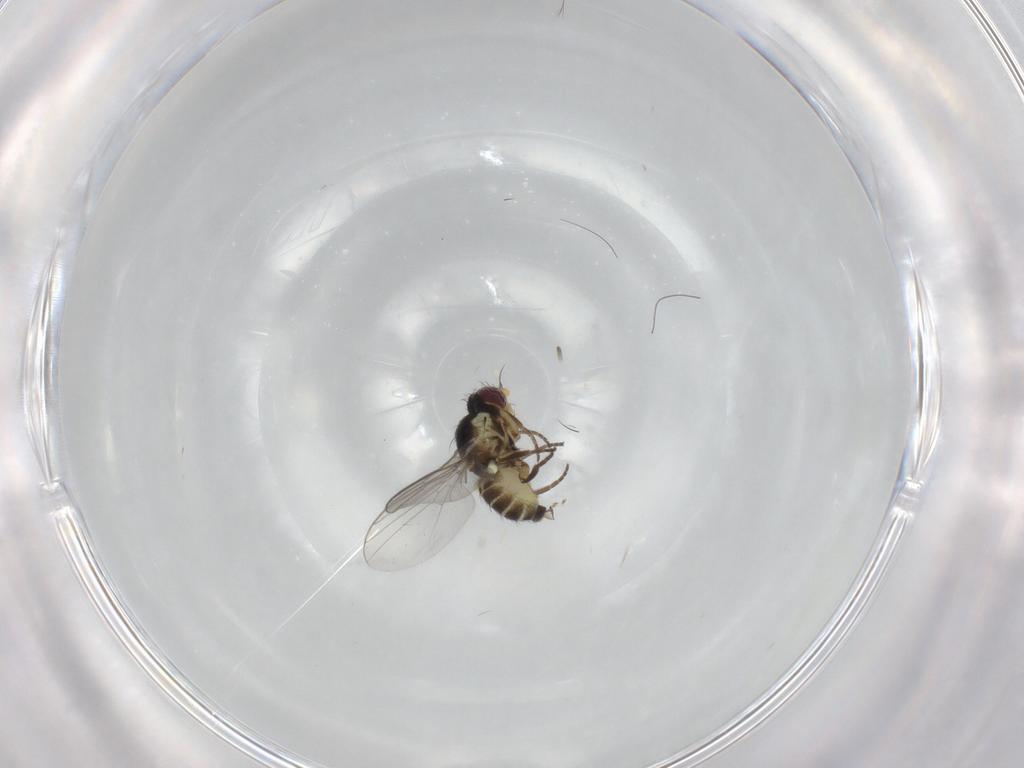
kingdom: Animalia
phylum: Arthropoda
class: Insecta
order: Diptera
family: Agromyzidae
